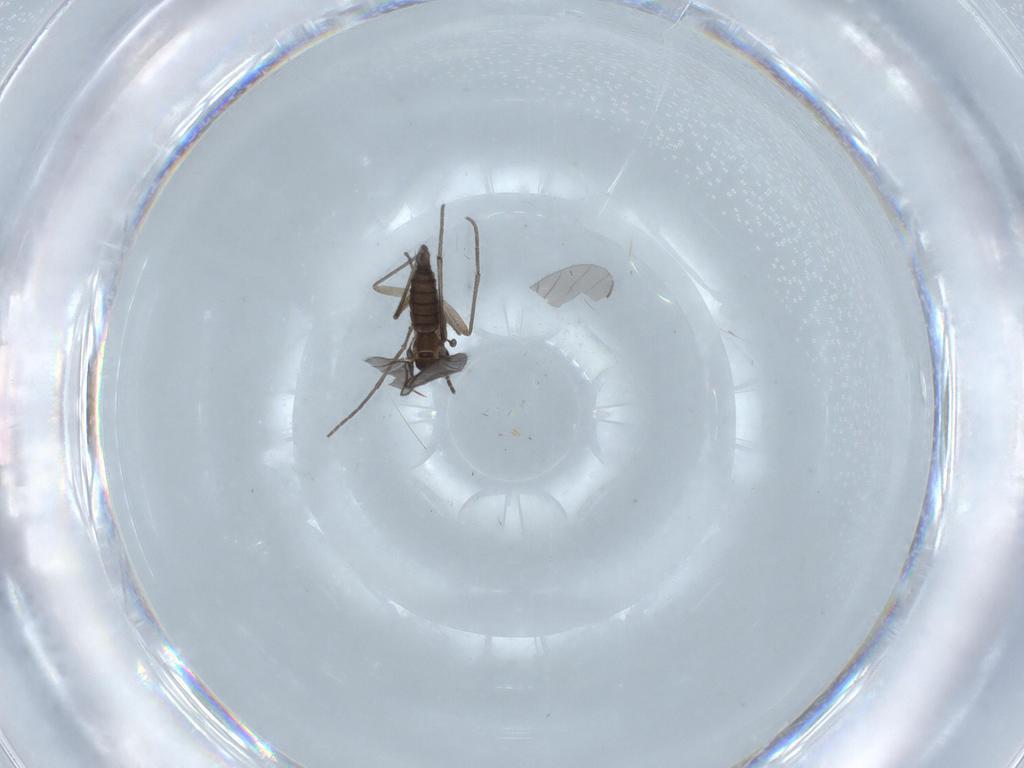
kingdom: Animalia
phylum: Arthropoda
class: Insecta
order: Diptera
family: Sciaridae
